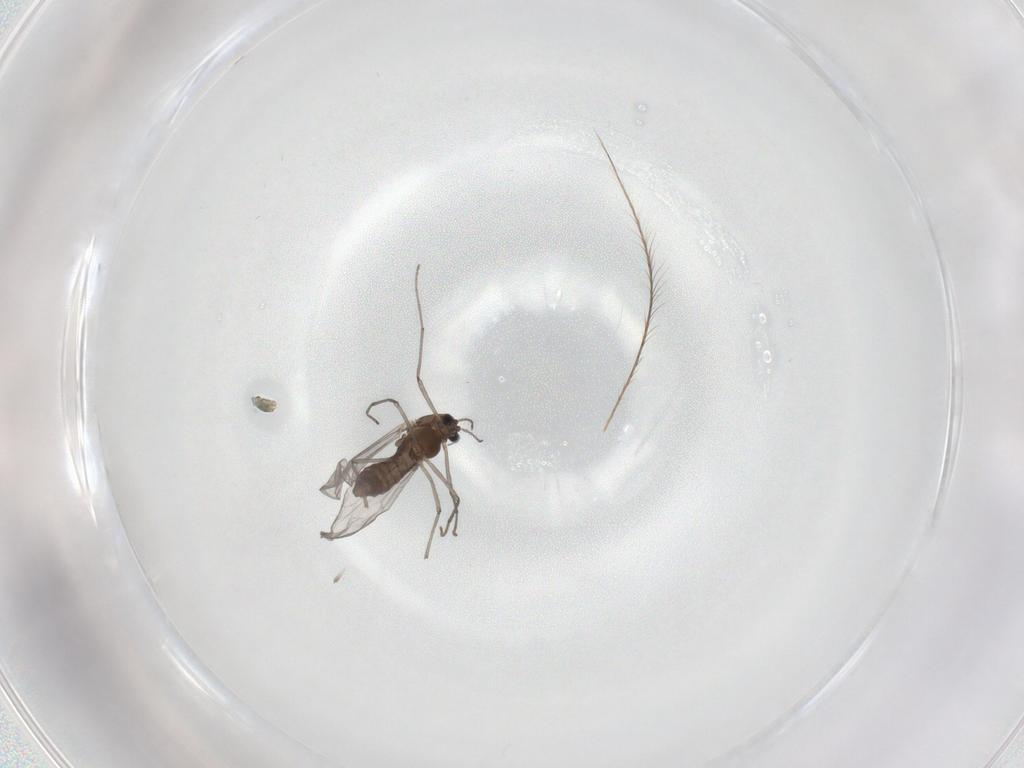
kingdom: Animalia
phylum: Arthropoda
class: Insecta
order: Diptera
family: Chironomidae
